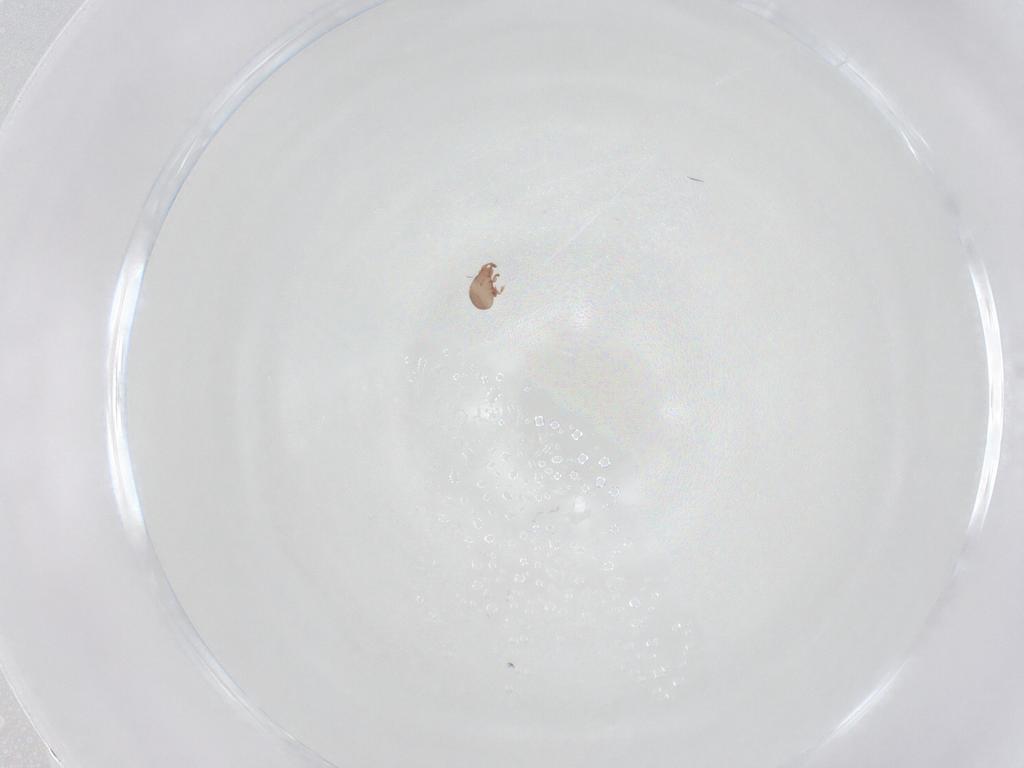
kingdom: Animalia
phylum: Arthropoda
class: Arachnida
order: Sarcoptiformes
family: Eremaeidae
